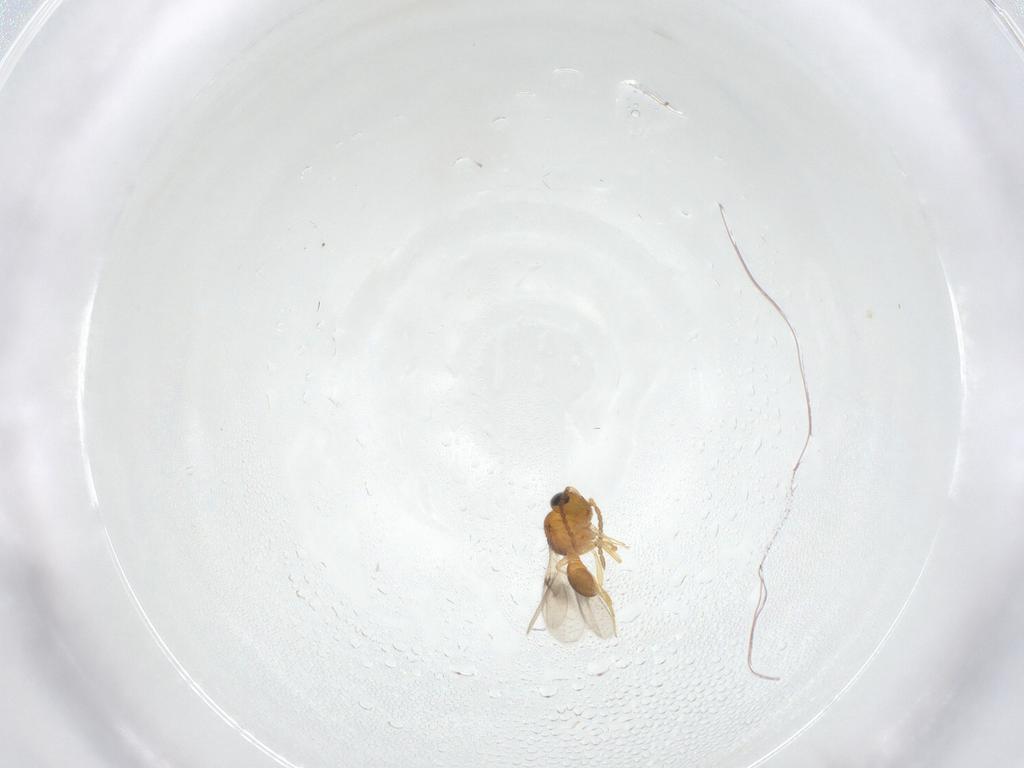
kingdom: Animalia
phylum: Arthropoda
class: Insecta
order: Hymenoptera
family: Scelionidae
